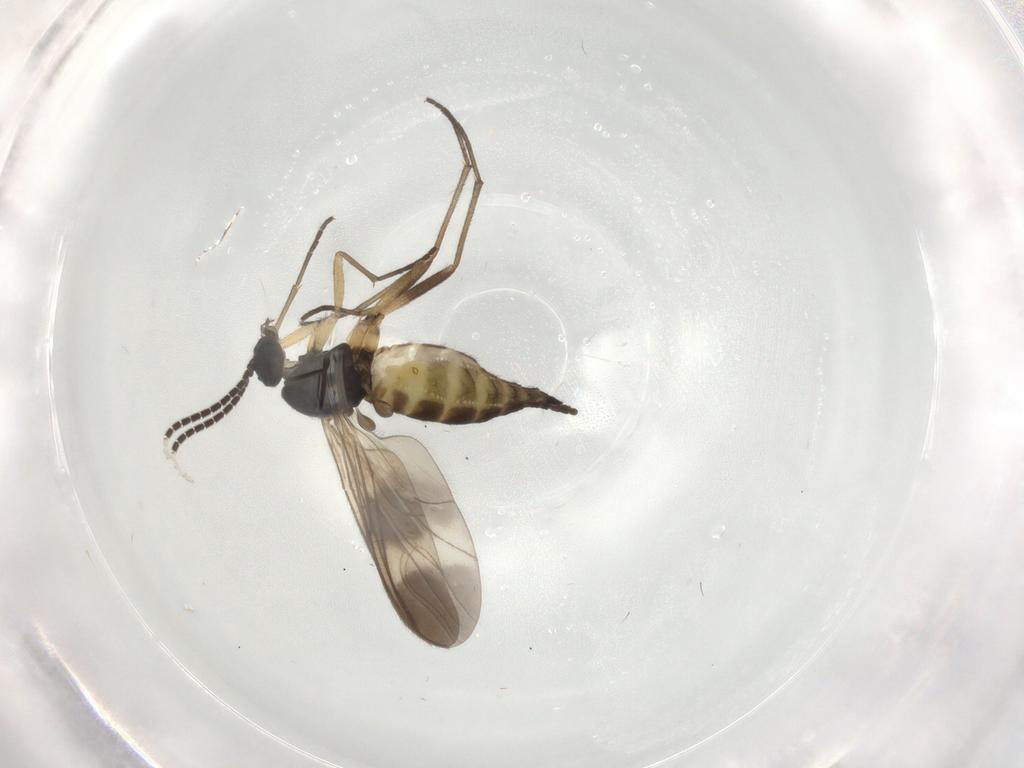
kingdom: Animalia
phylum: Arthropoda
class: Insecta
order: Diptera
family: Sciaridae
